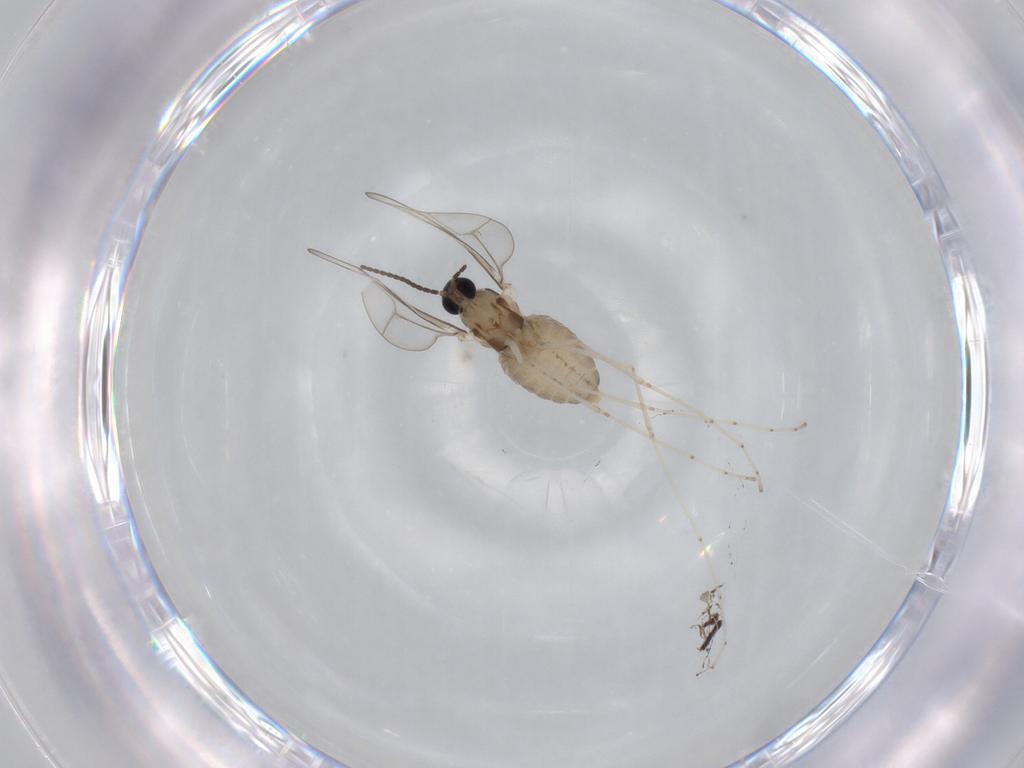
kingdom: Animalia
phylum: Arthropoda
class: Insecta
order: Diptera
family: Cecidomyiidae
